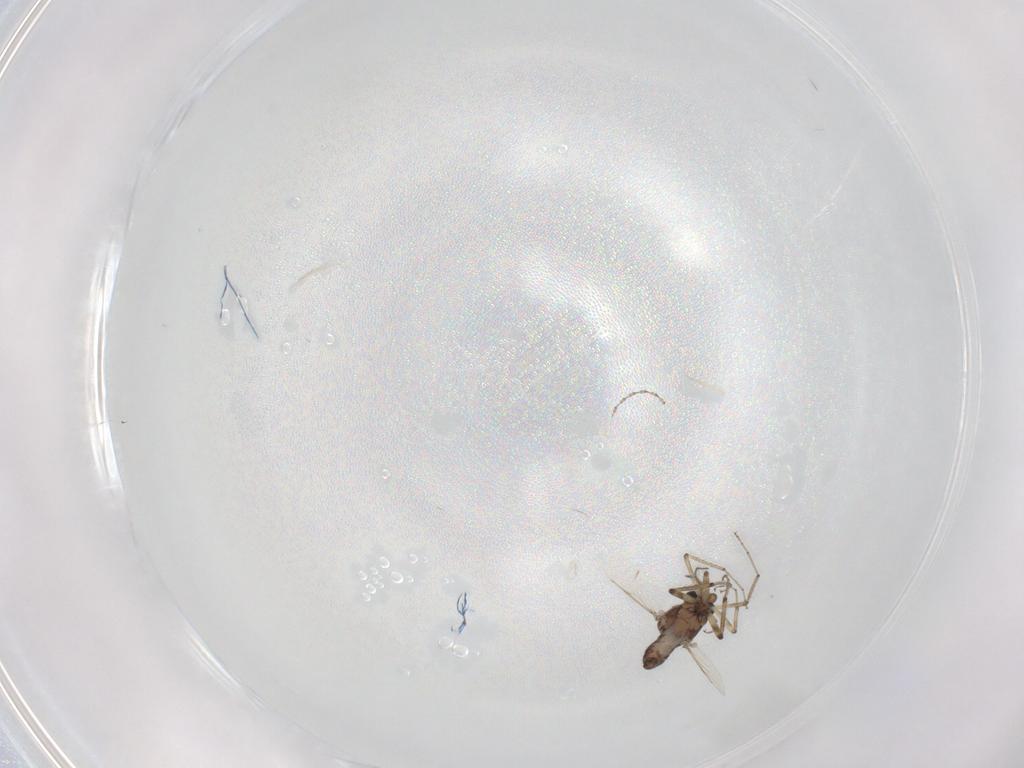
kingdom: Animalia
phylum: Arthropoda
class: Insecta
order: Diptera
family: Ceratopogonidae
